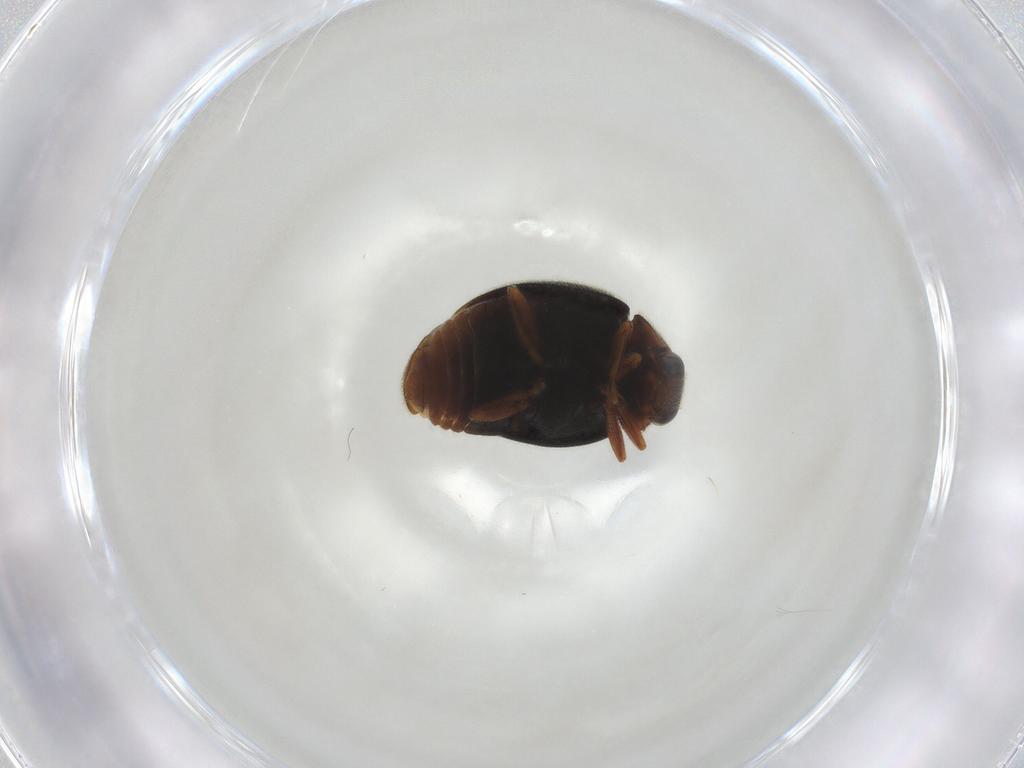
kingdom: Animalia
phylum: Arthropoda
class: Insecta
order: Coleoptera
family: Coccinellidae
